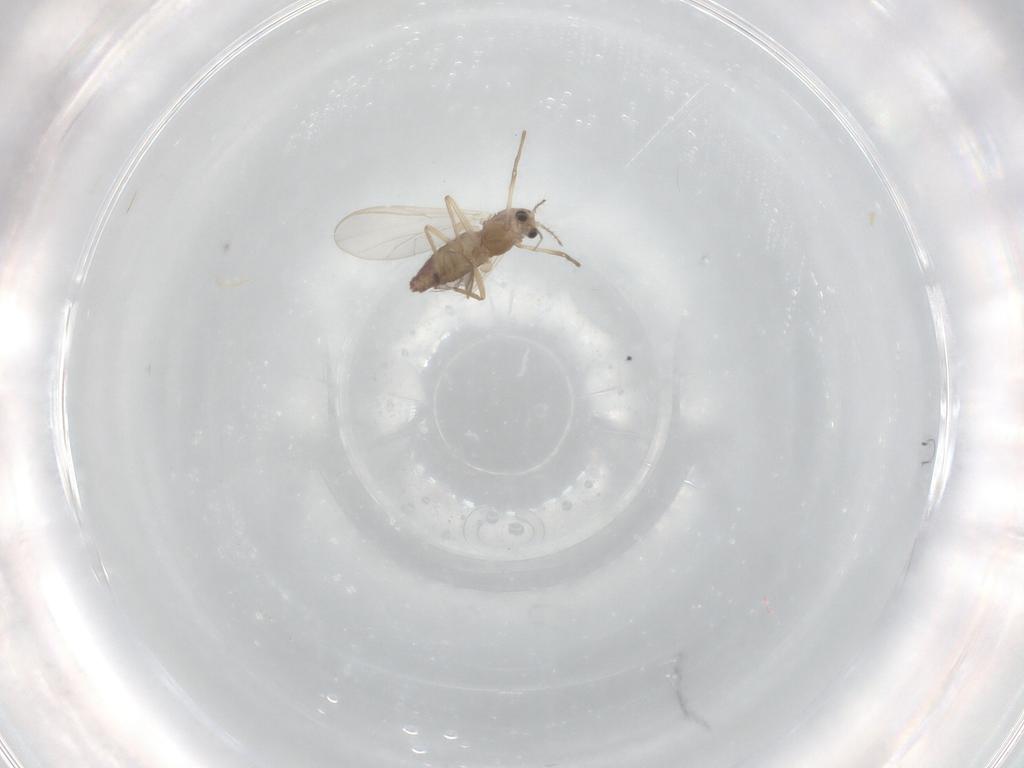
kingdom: Animalia
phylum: Arthropoda
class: Insecta
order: Diptera
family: Chironomidae
